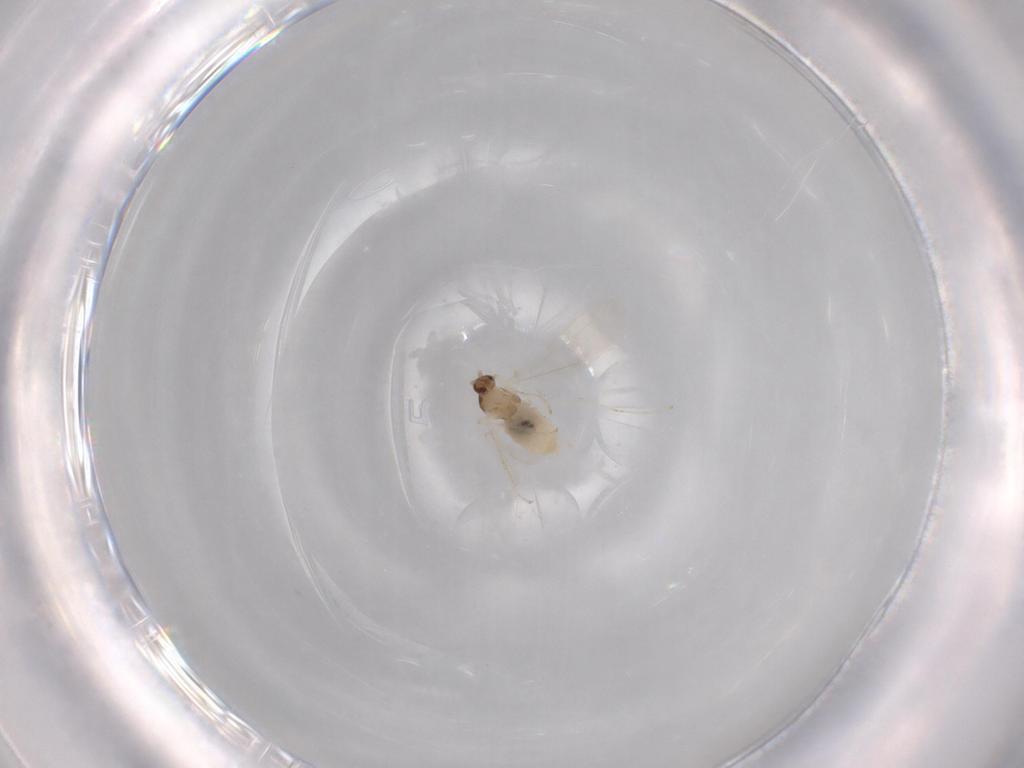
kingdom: Animalia
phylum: Arthropoda
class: Insecta
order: Diptera
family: Cecidomyiidae
